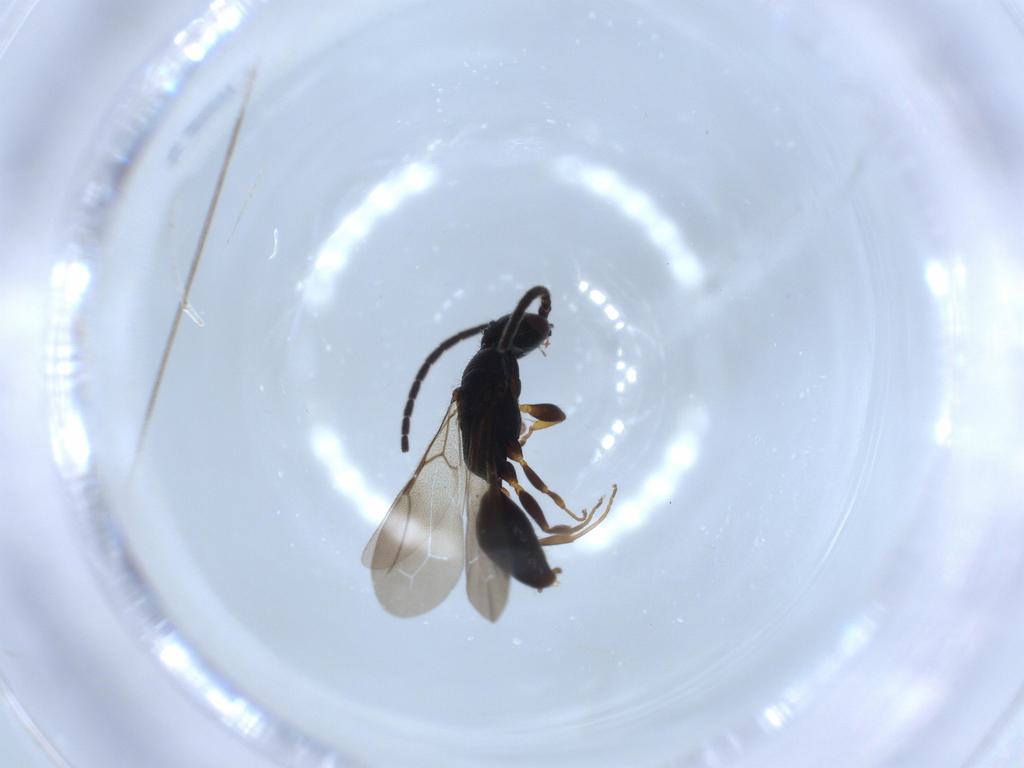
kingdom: Animalia
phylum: Arthropoda
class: Insecta
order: Hymenoptera
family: Bethylidae
